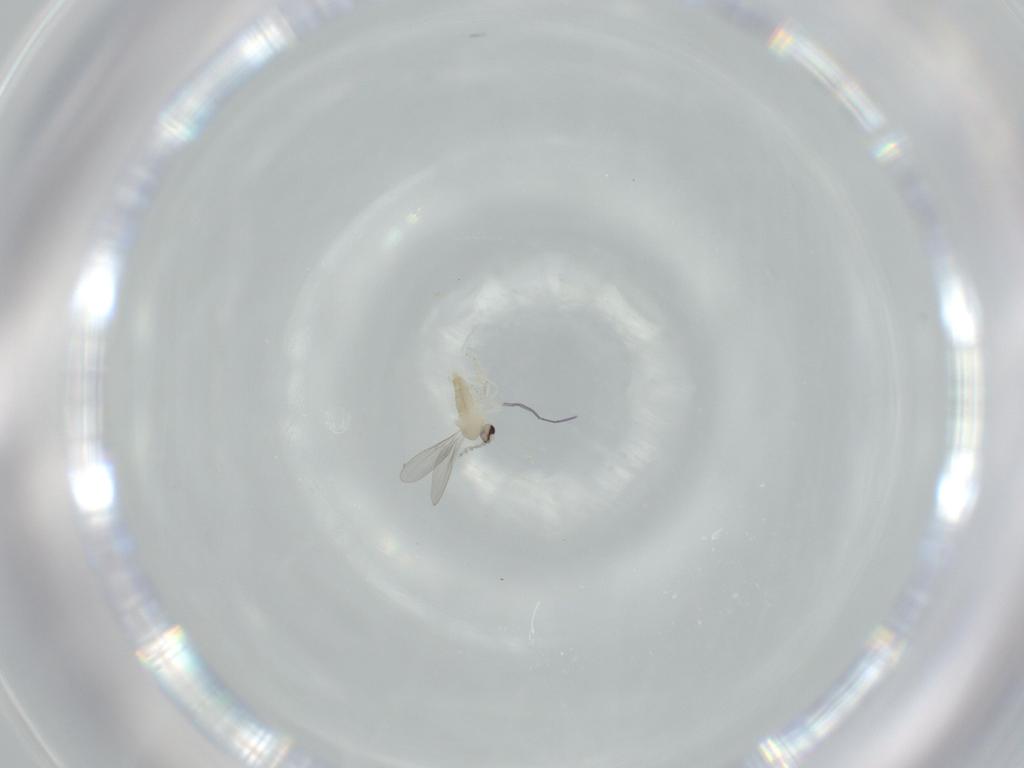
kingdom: Animalia
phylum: Arthropoda
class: Insecta
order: Diptera
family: Cecidomyiidae
